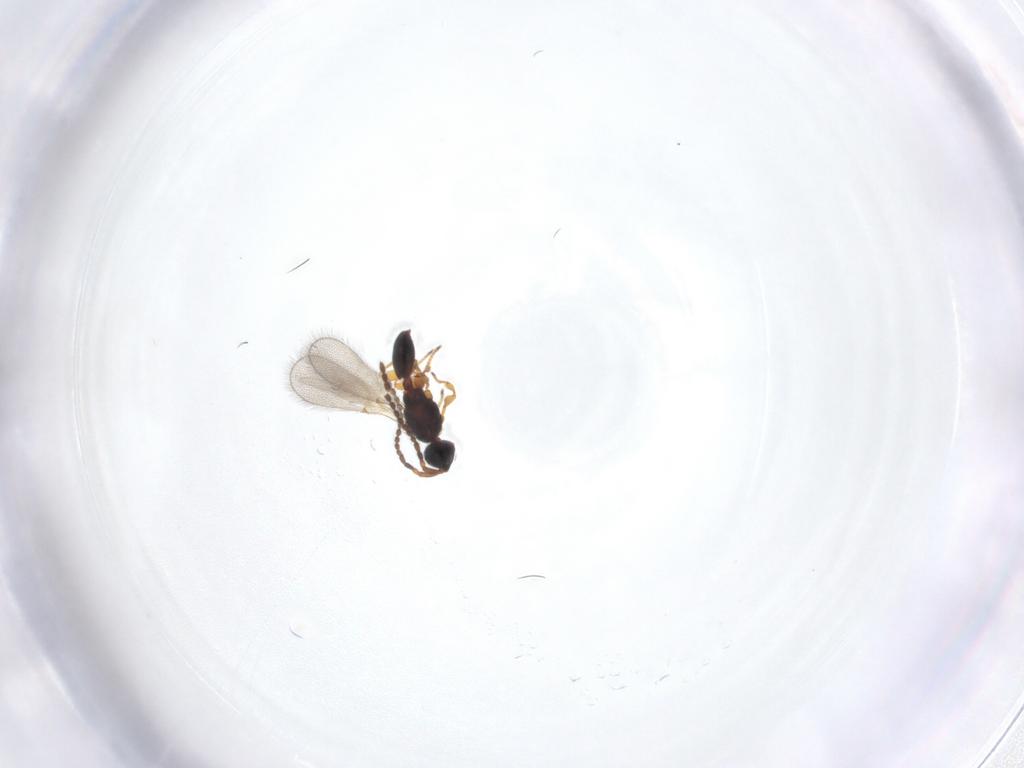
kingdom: Animalia
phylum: Arthropoda
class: Insecta
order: Hymenoptera
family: Diapriidae
